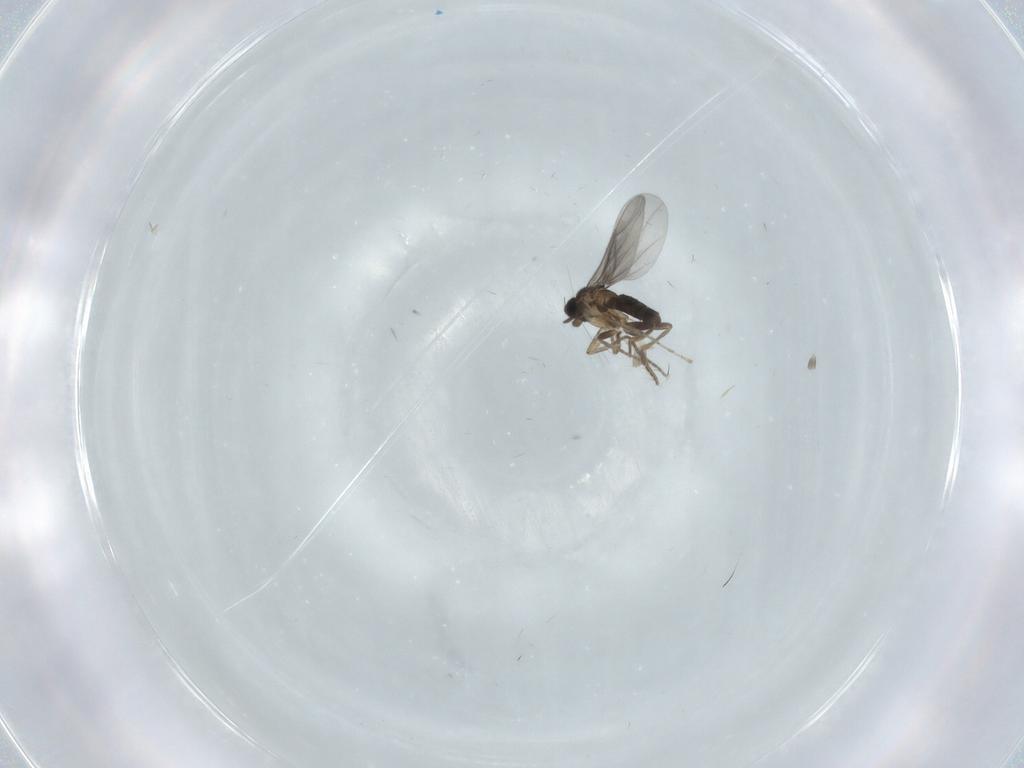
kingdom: Animalia
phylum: Arthropoda
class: Insecta
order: Diptera
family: Cecidomyiidae
